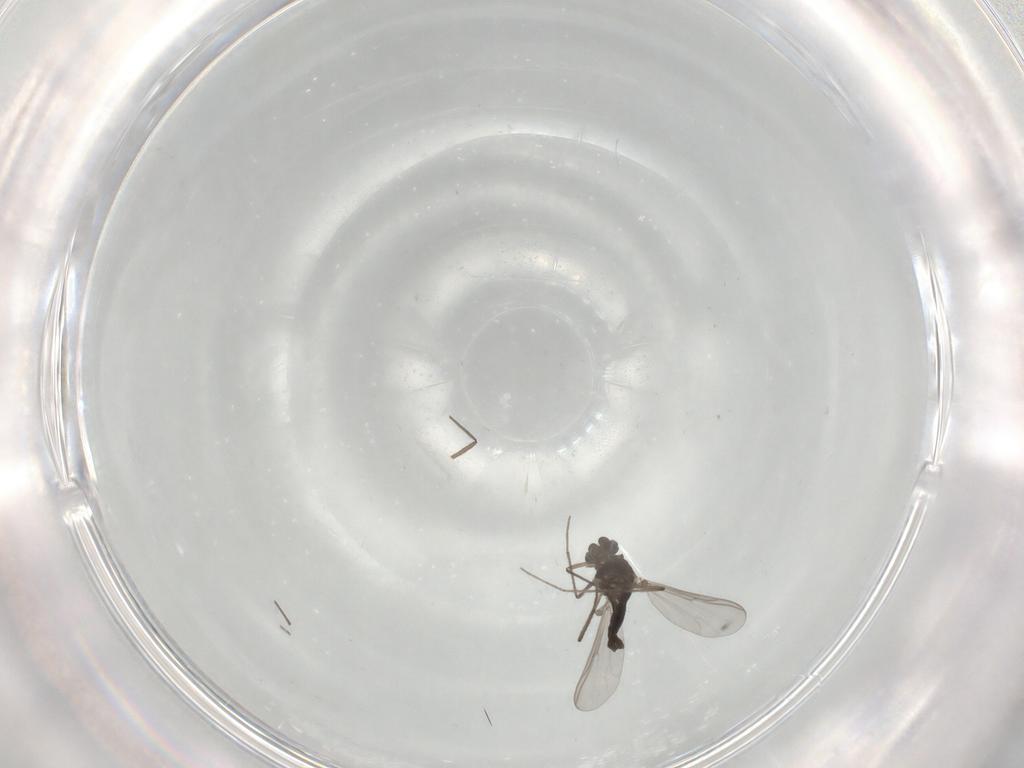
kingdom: Animalia
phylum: Arthropoda
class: Insecta
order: Diptera
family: Chironomidae
